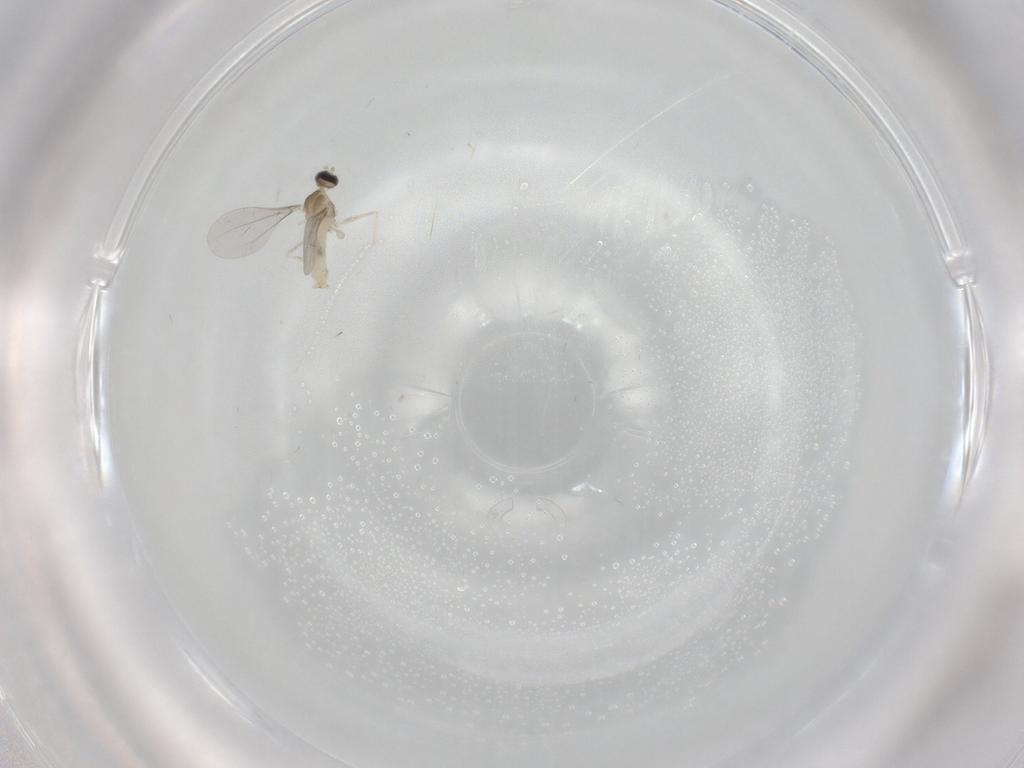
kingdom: Animalia
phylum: Arthropoda
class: Insecta
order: Diptera
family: Cecidomyiidae
